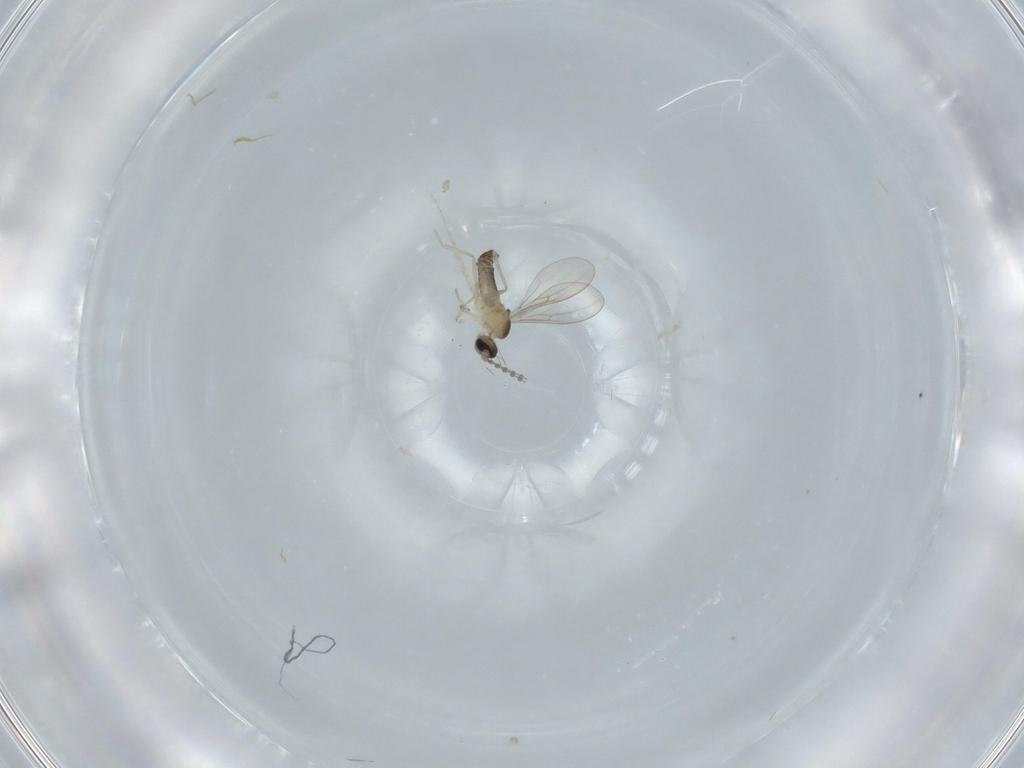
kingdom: Animalia
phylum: Arthropoda
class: Insecta
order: Diptera
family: Cecidomyiidae
